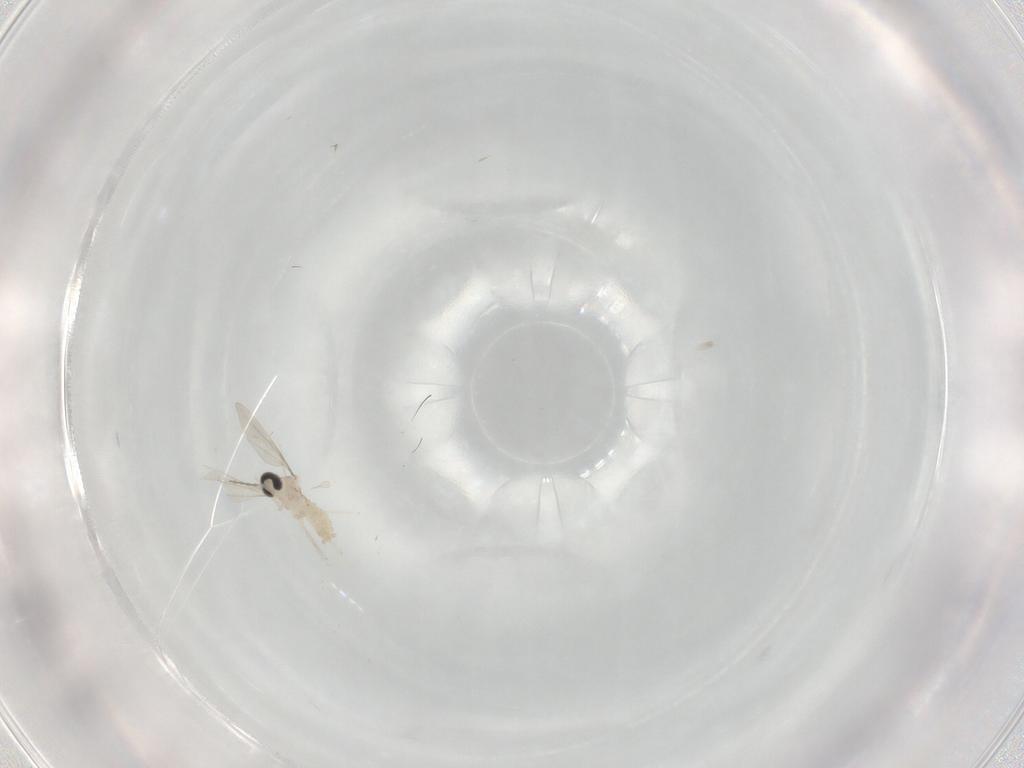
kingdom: Animalia
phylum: Arthropoda
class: Insecta
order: Diptera
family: Cecidomyiidae
